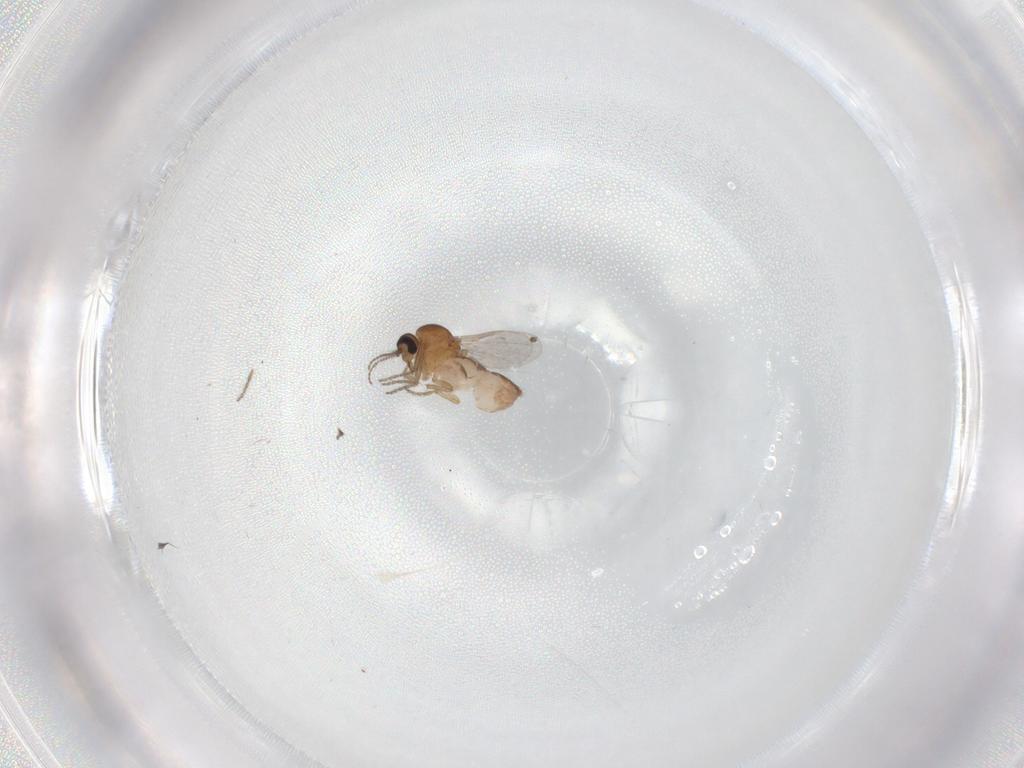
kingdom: Animalia
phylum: Arthropoda
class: Insecta
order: Diptera
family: Ceratopogonidae
